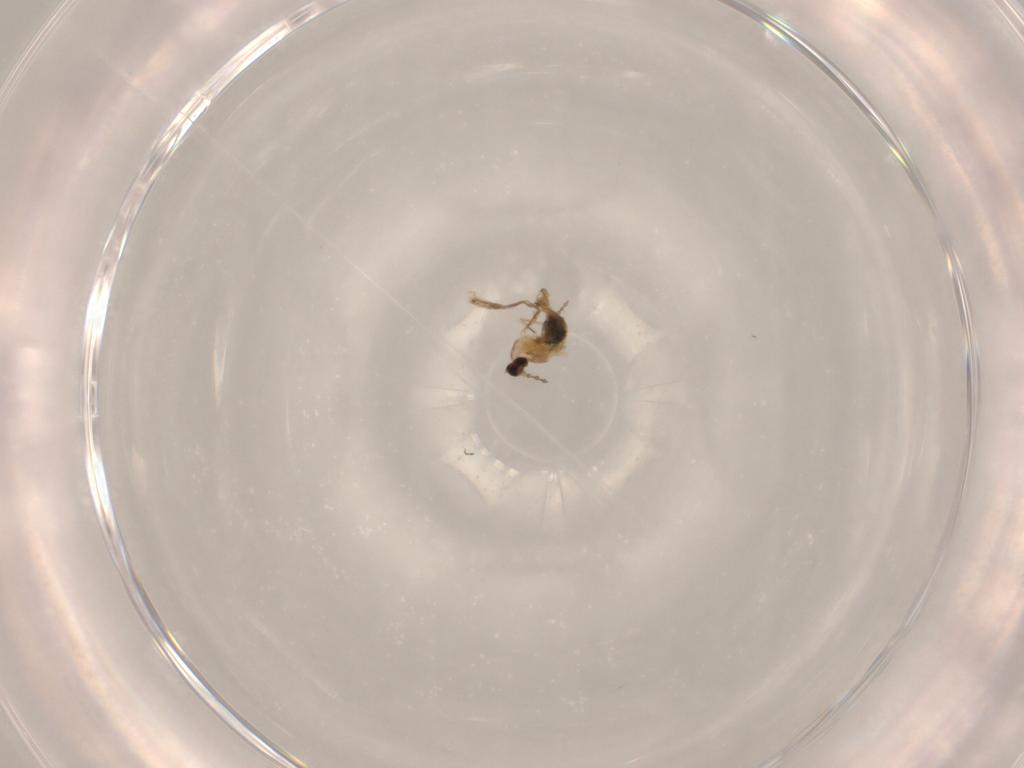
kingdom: Animalia
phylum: Arthropoda
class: Insecta
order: Diptera
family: Cecidomyiidae
